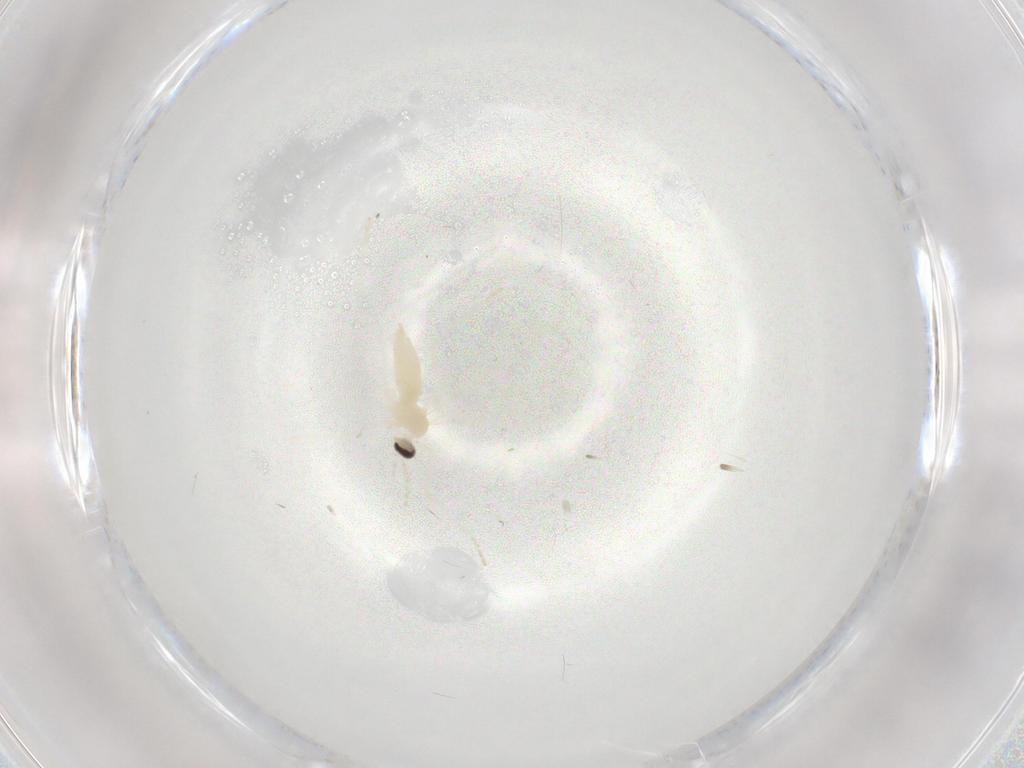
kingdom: Animalia
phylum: Arthropoda
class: Insecta
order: Diptera
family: Cecidomyiidae
